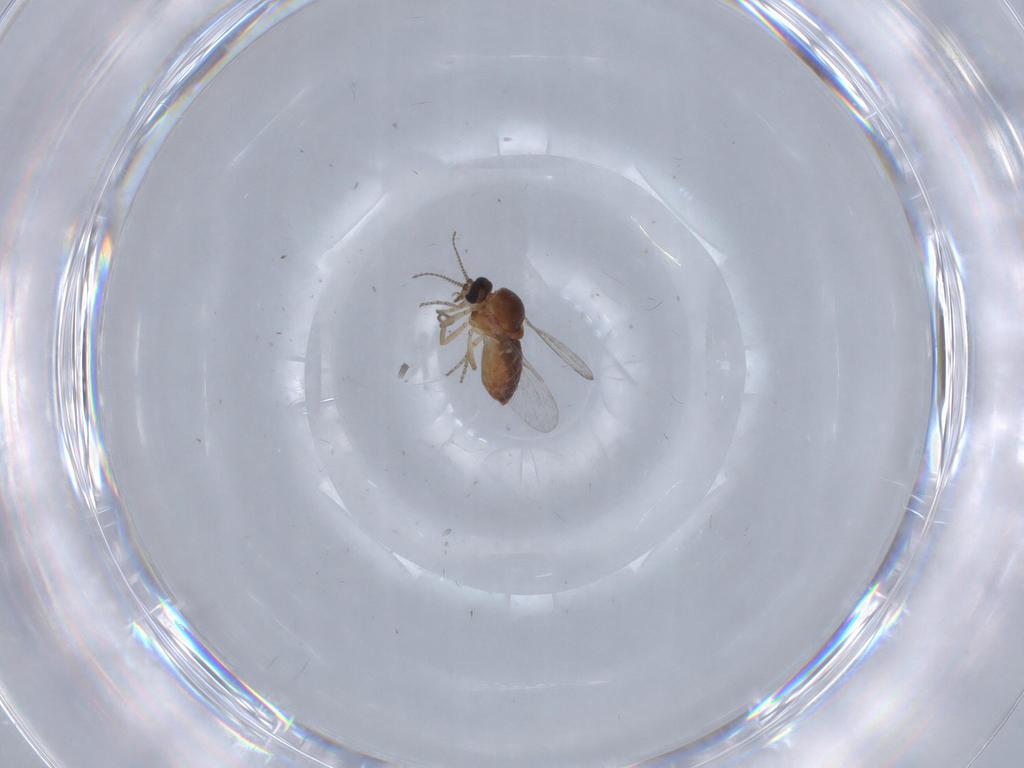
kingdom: Animalia
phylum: Arthropoda
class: Insecta
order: Diptera
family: Ceratopogonidae
